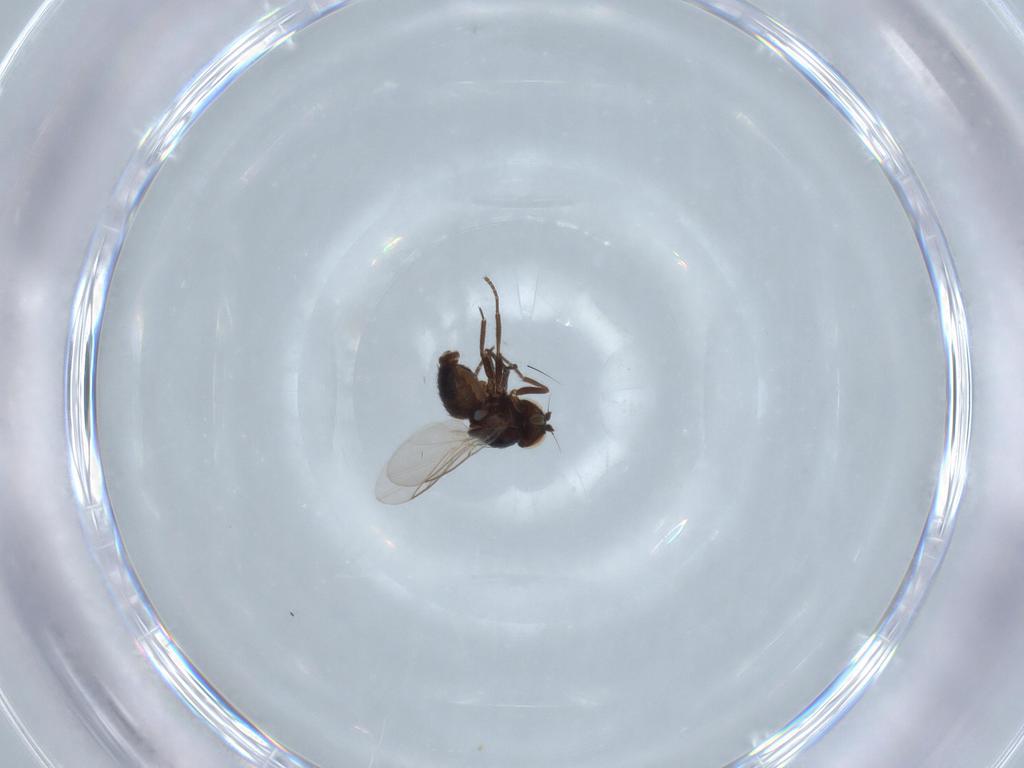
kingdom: Animalia
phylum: Arthropoda
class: Insecta
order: Diptera
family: Agromyzidae
